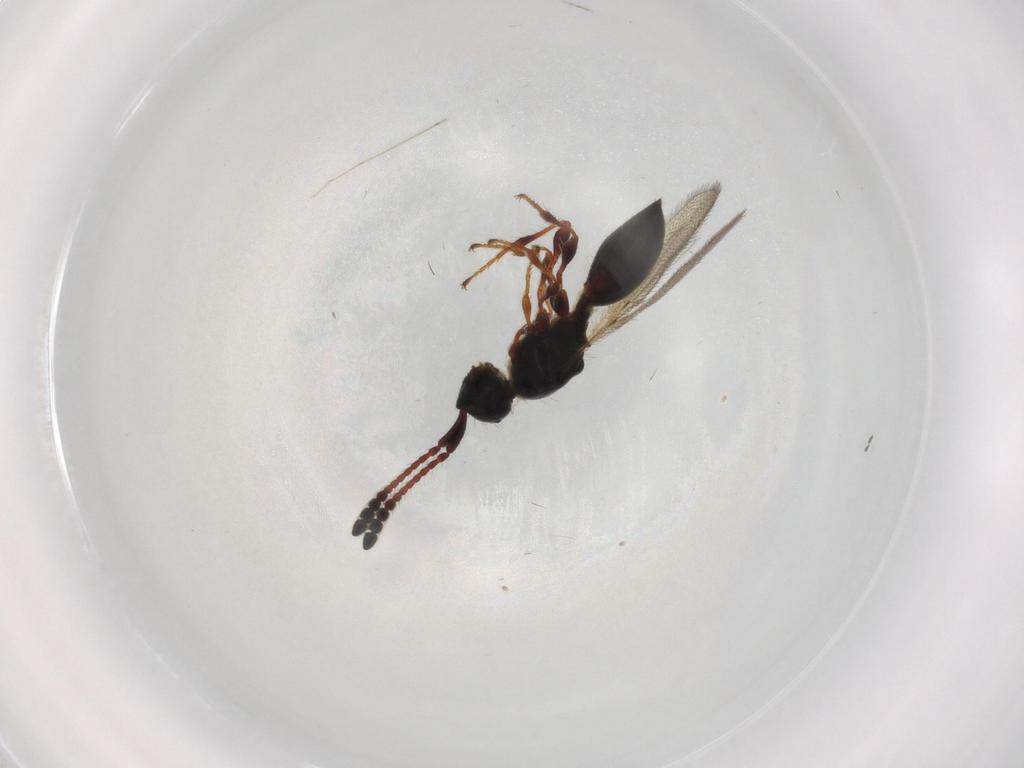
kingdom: Animalia
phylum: Arthropoda
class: Insecta
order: Hymenoptera
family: Diapriidae
